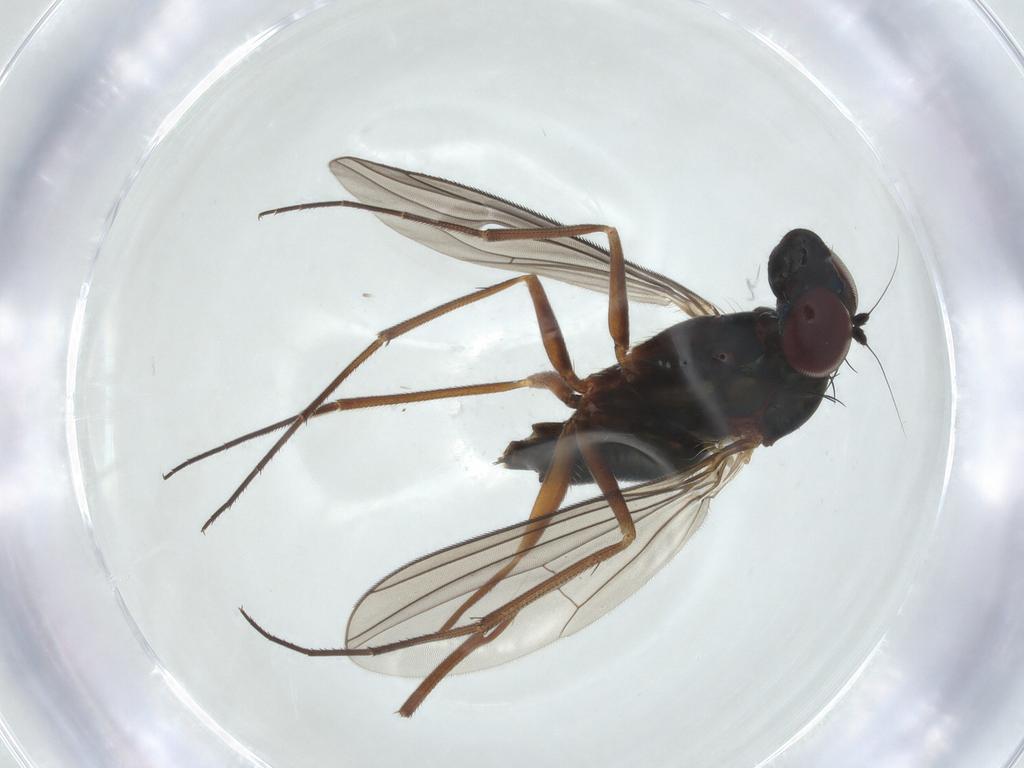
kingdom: Animalia
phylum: Arthropoda
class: Insecta
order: Diptera
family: Dolichopodidae
